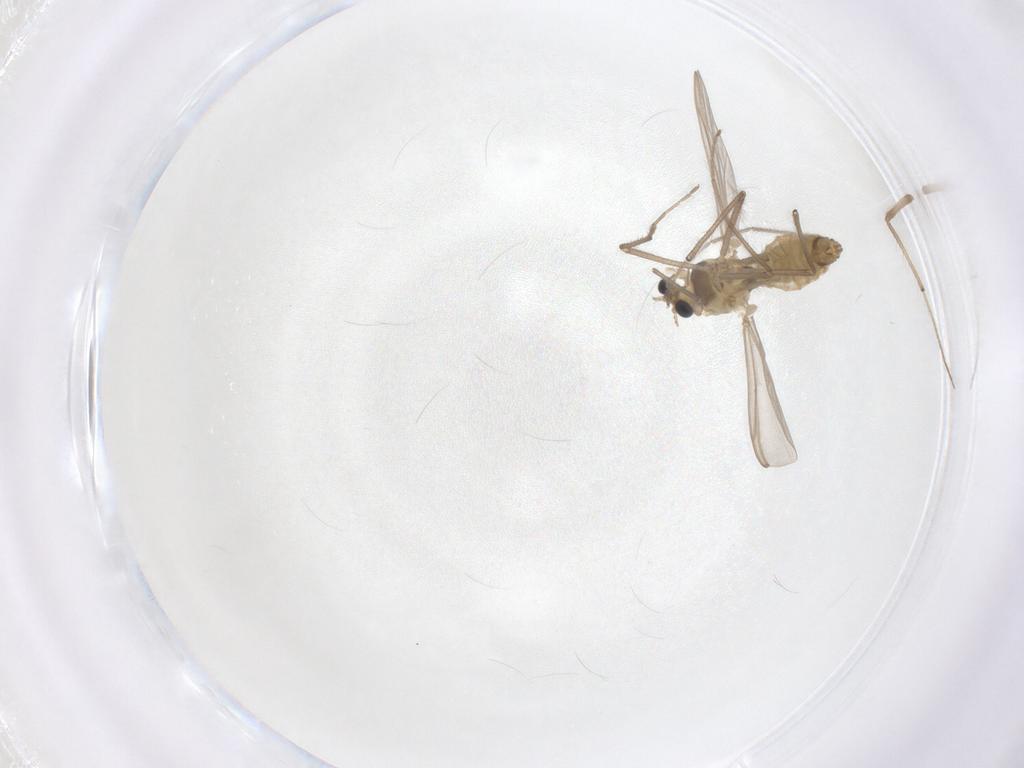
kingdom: Animalia
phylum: Arthropoda
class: Insecta
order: Diptera
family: Chironomidae
